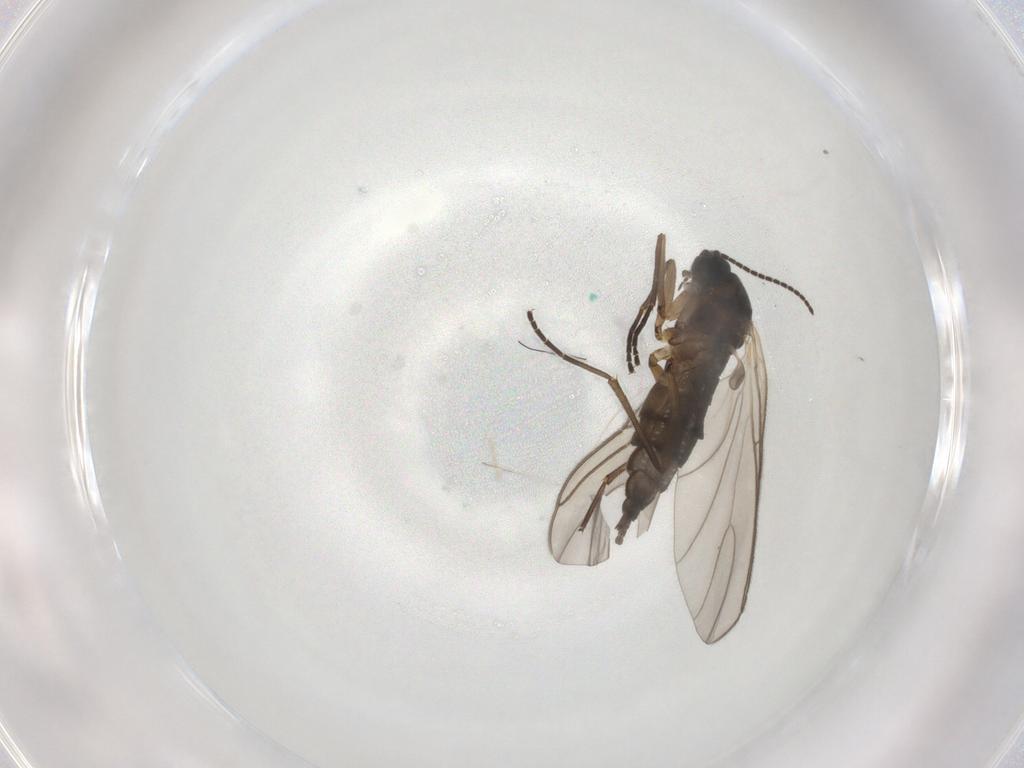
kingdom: Animalia
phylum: Arthropoda
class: Insecta
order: Diptera
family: Sciaridae
